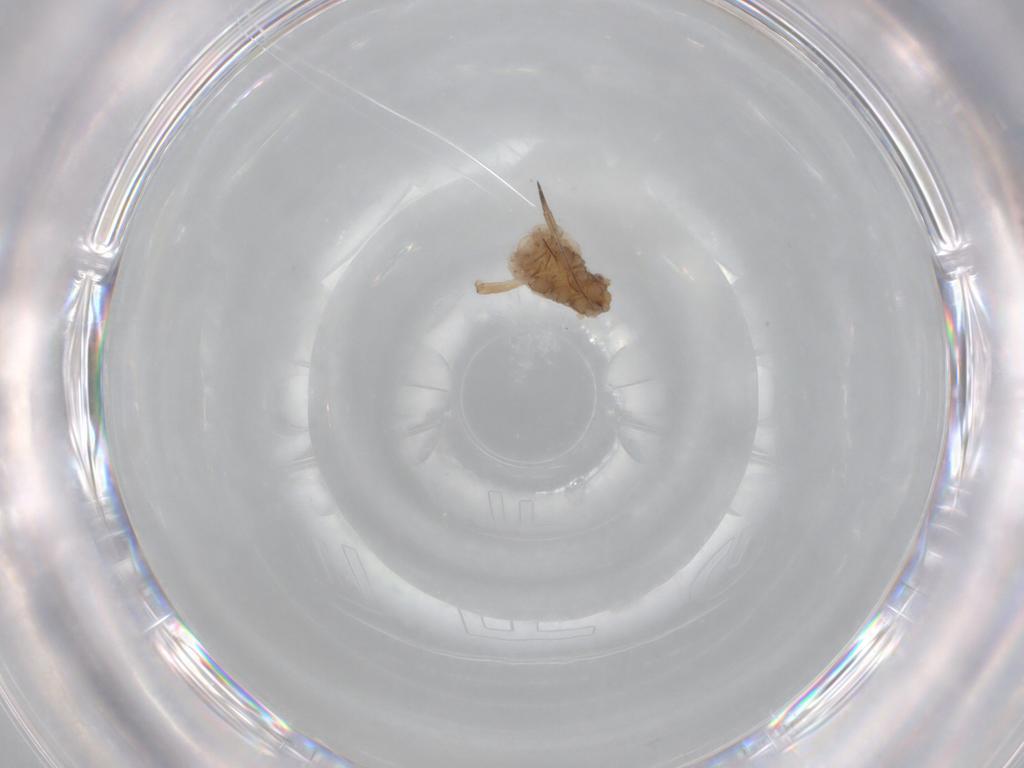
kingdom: Animalia
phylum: Arthropoda
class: Insecta
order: Hemiptera
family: Aphididae
